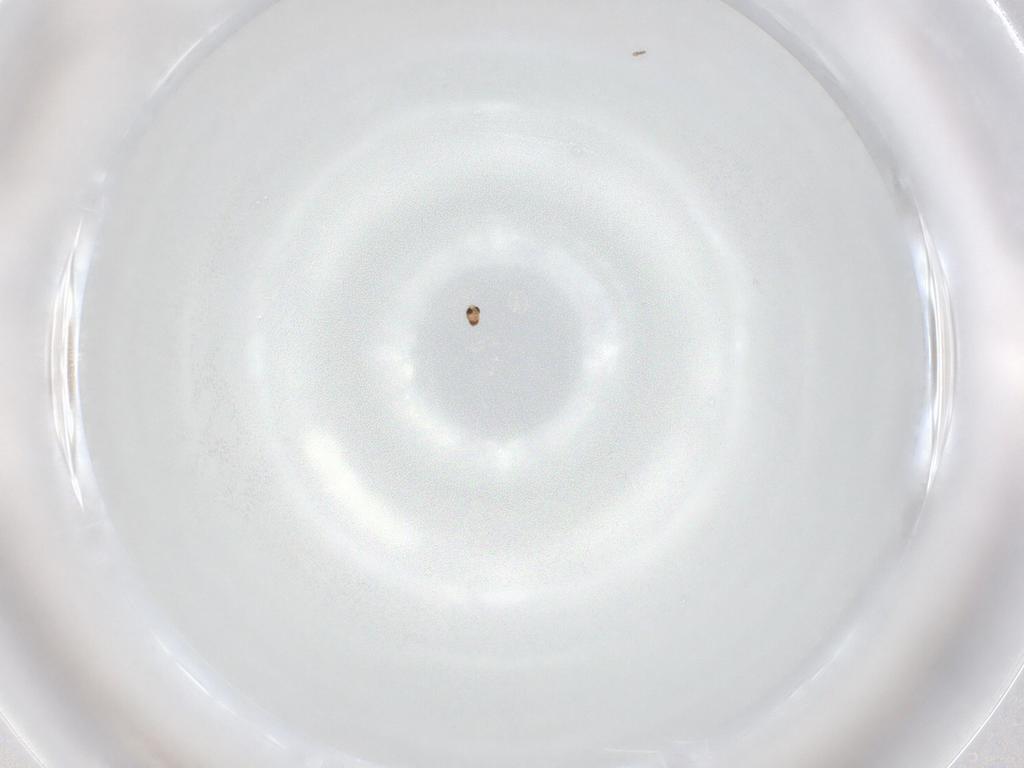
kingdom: Animalia
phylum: Arthropoda
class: Insecta
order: Diptera
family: Cecidomyiidae
